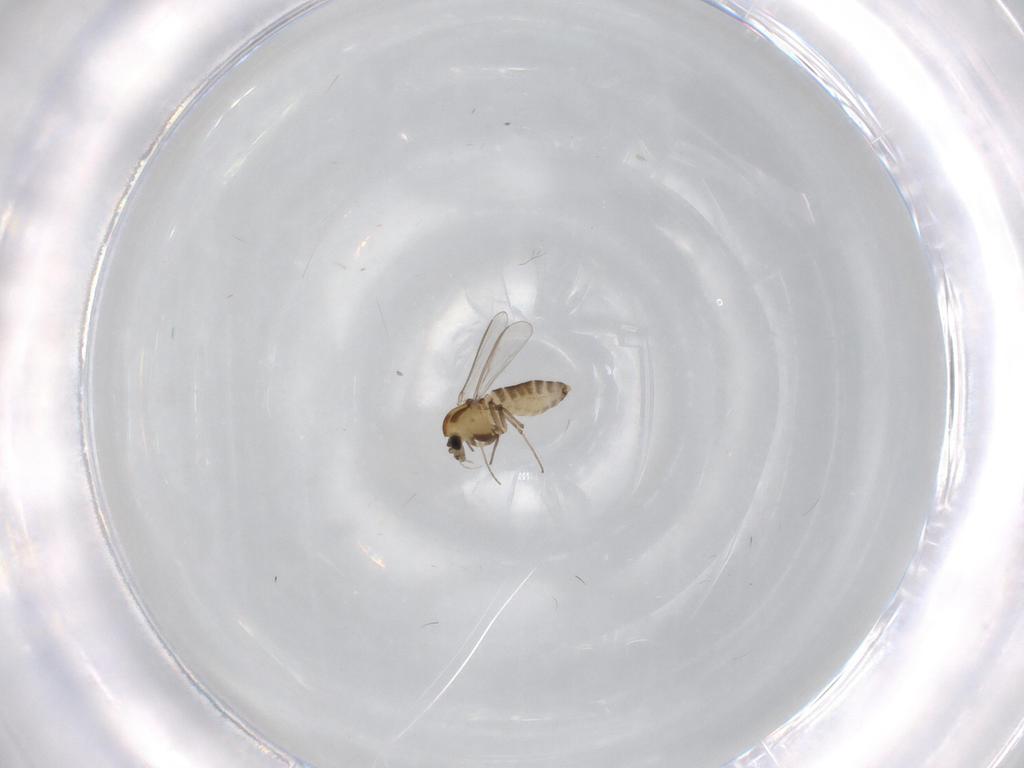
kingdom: Animalia
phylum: Arthropoda
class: Insecta
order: Diptera
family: Chironomidae
